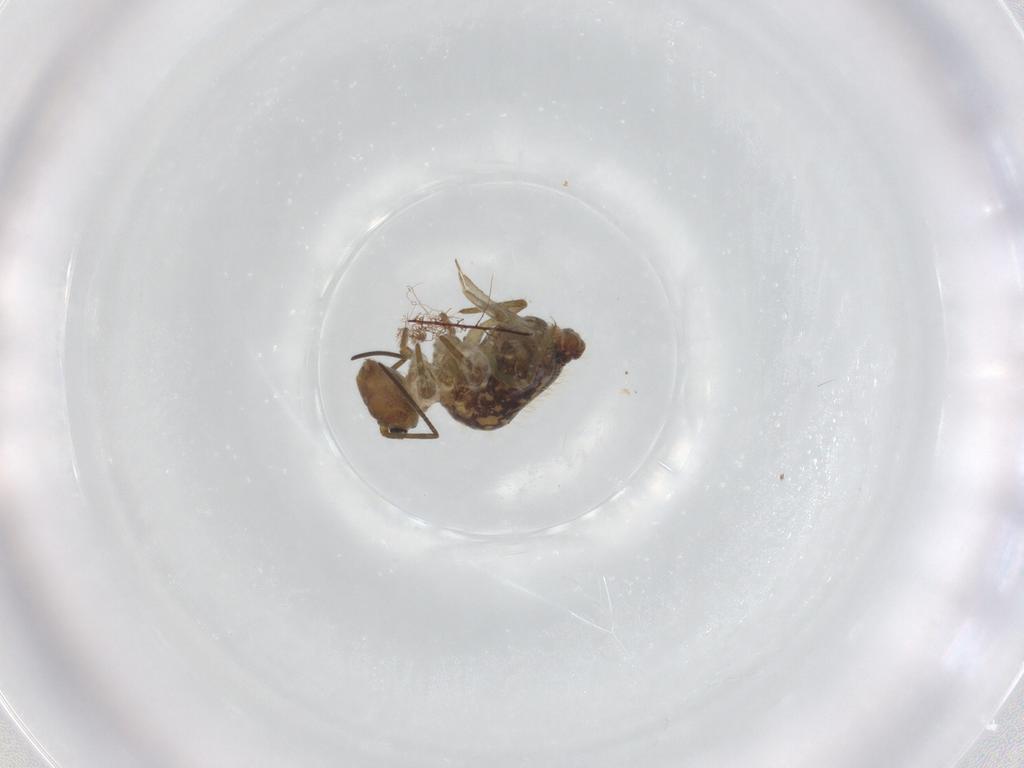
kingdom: Animalia
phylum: Arthropoda
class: Collembola
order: Symphypleona
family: Sminthuridae
